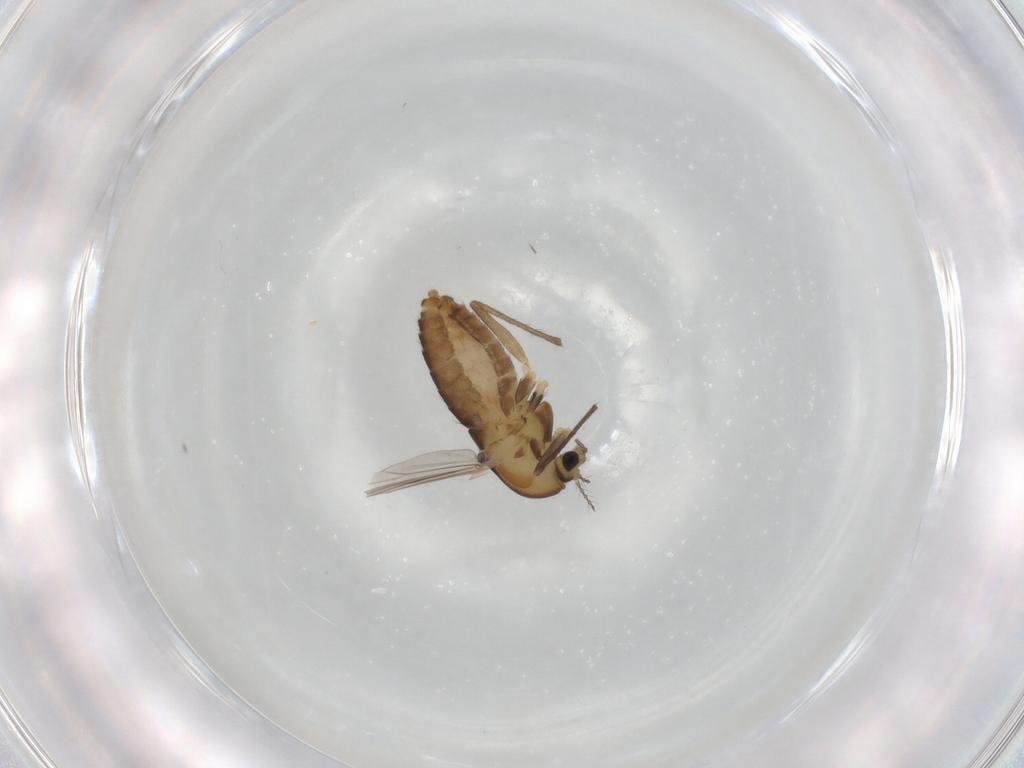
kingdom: Animalia
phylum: Arthropoda
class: Insecta
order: Diptera
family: Chironomidae
